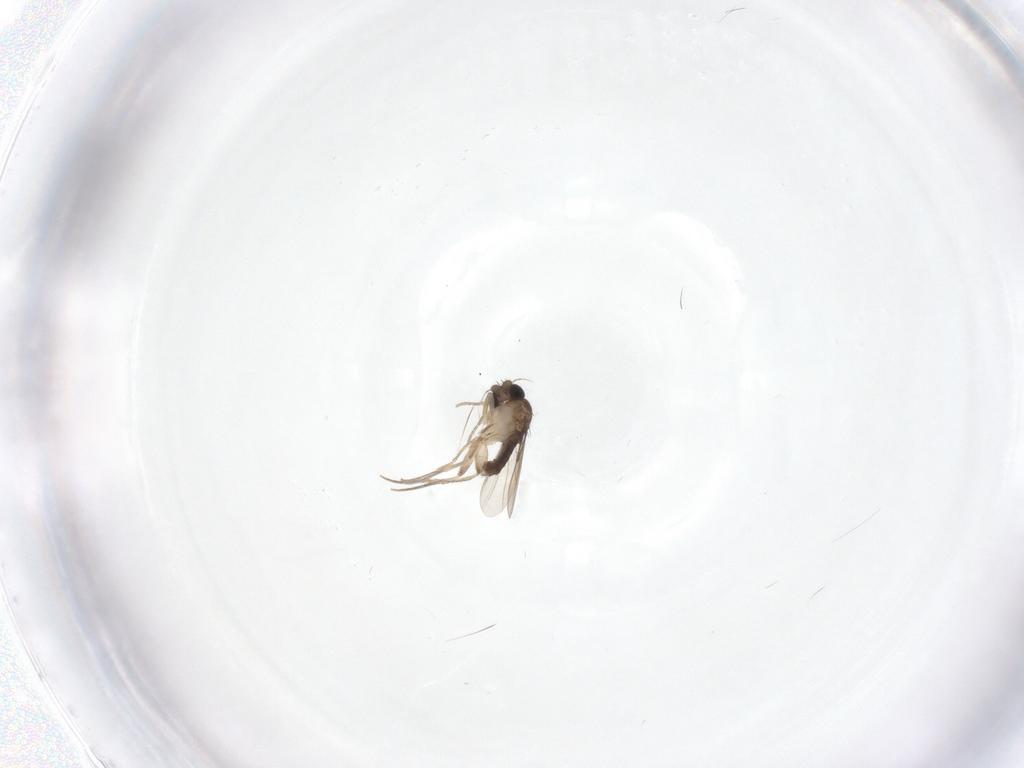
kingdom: Animalia
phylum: Arthropoda
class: Insecta
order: Diptera
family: Phoridae
